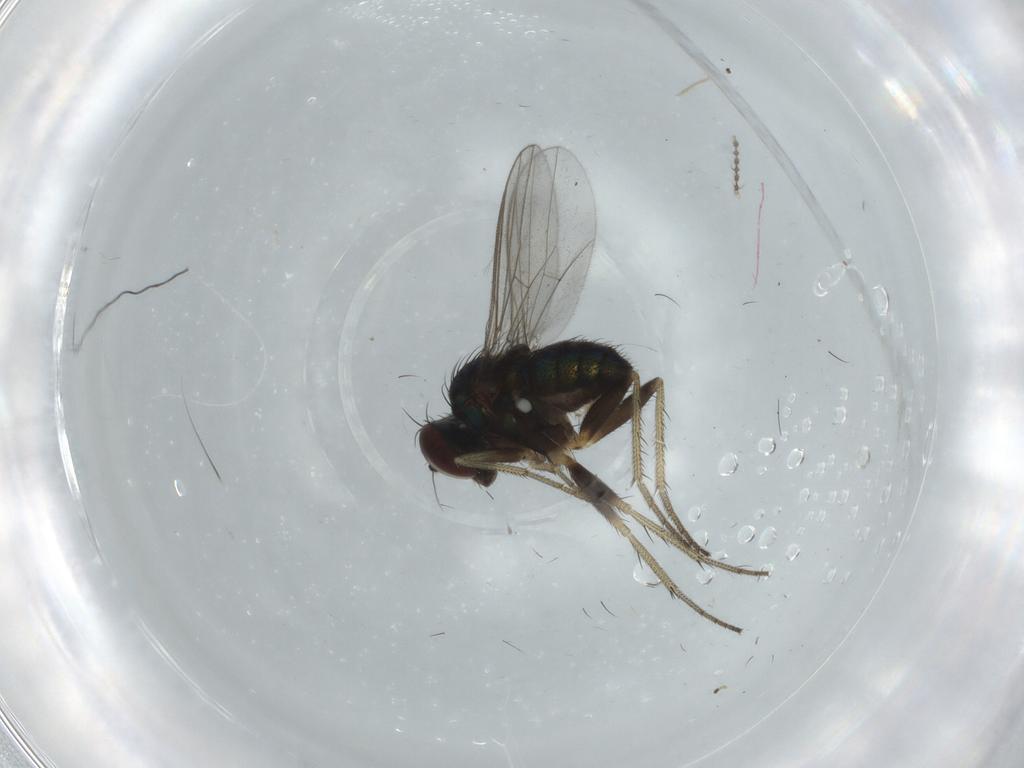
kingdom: Animalia
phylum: Arthropoda
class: Insecta
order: Diptera
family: Dolichopodidae
